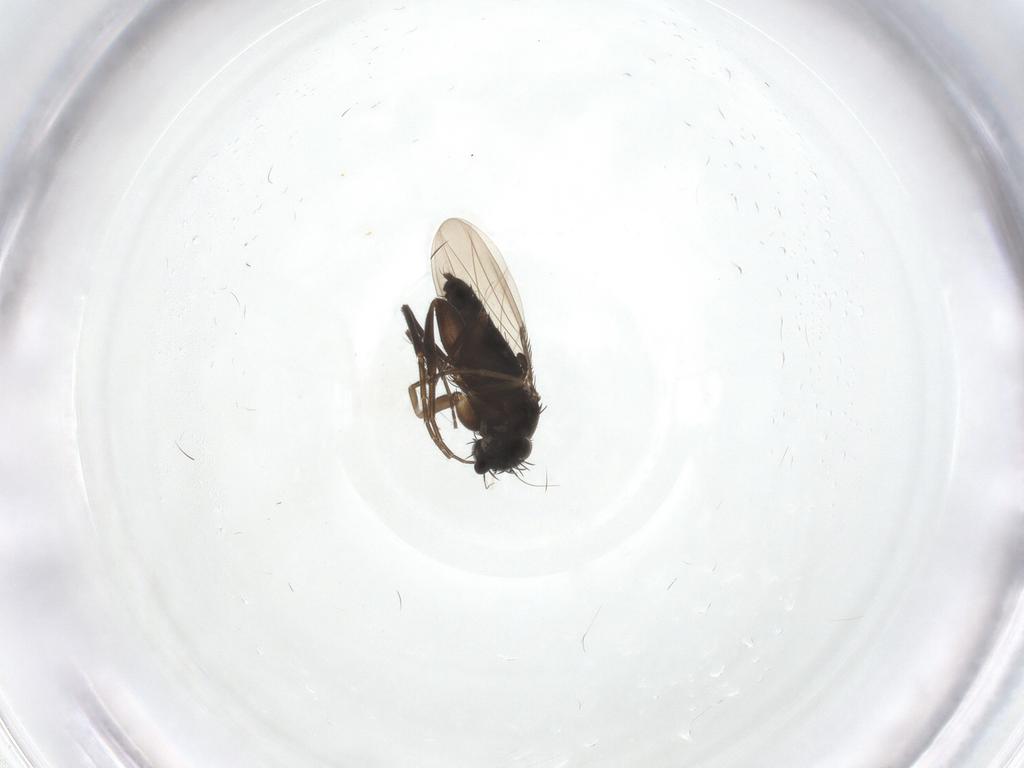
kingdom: Animalia
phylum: Arthropoda
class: Insecta
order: Diptera
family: Phoridae
